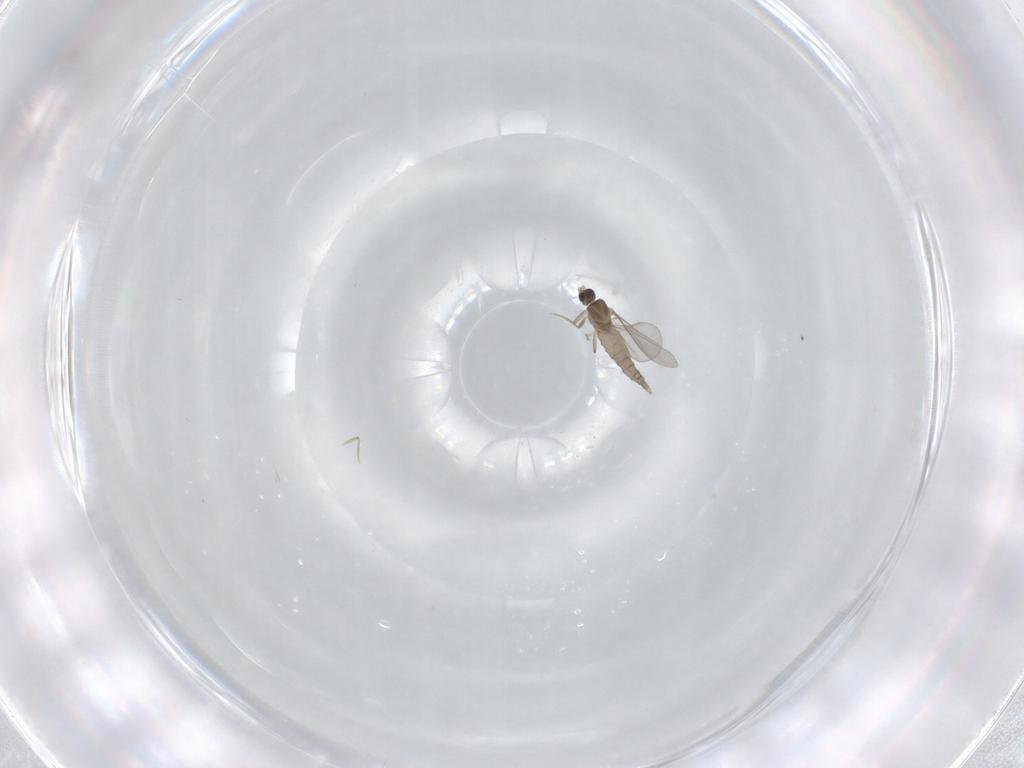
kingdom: Animalia
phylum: Arthropoda
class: Insecta
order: Diptera
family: Cecidomyiidae
